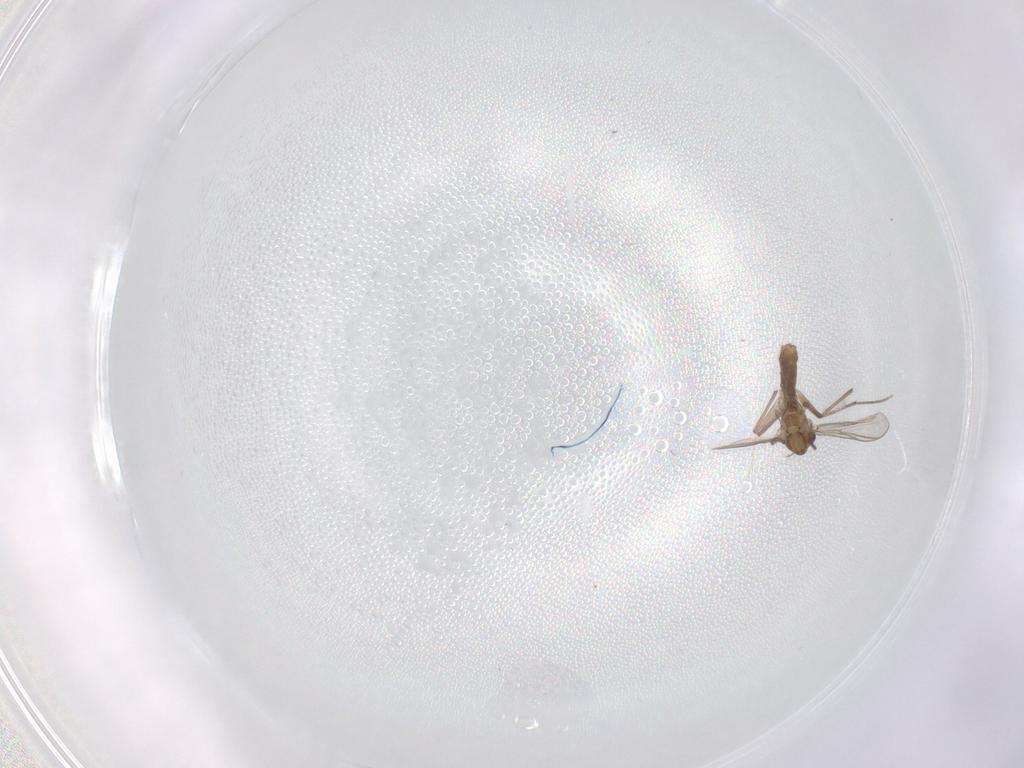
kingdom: Animalia
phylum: Arthropoda
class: Insecta
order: Diptera
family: Chironomidae
